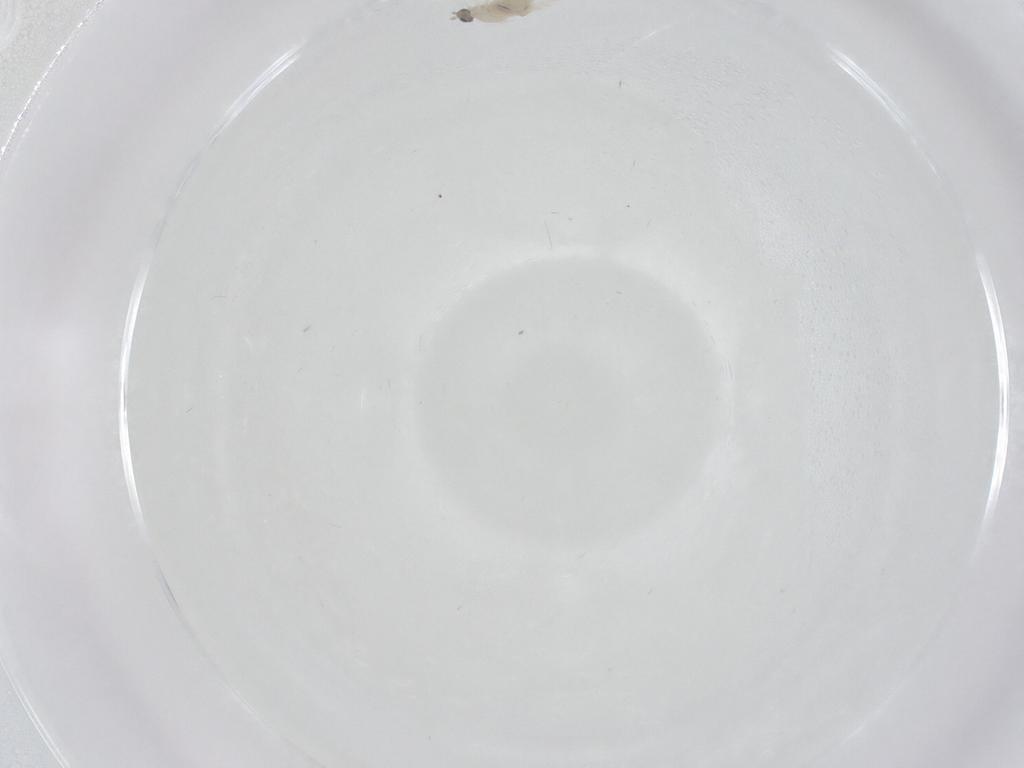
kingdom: Animalia
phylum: Arthropoda
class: Insecta
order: Diptera
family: Cecidomyiidae
